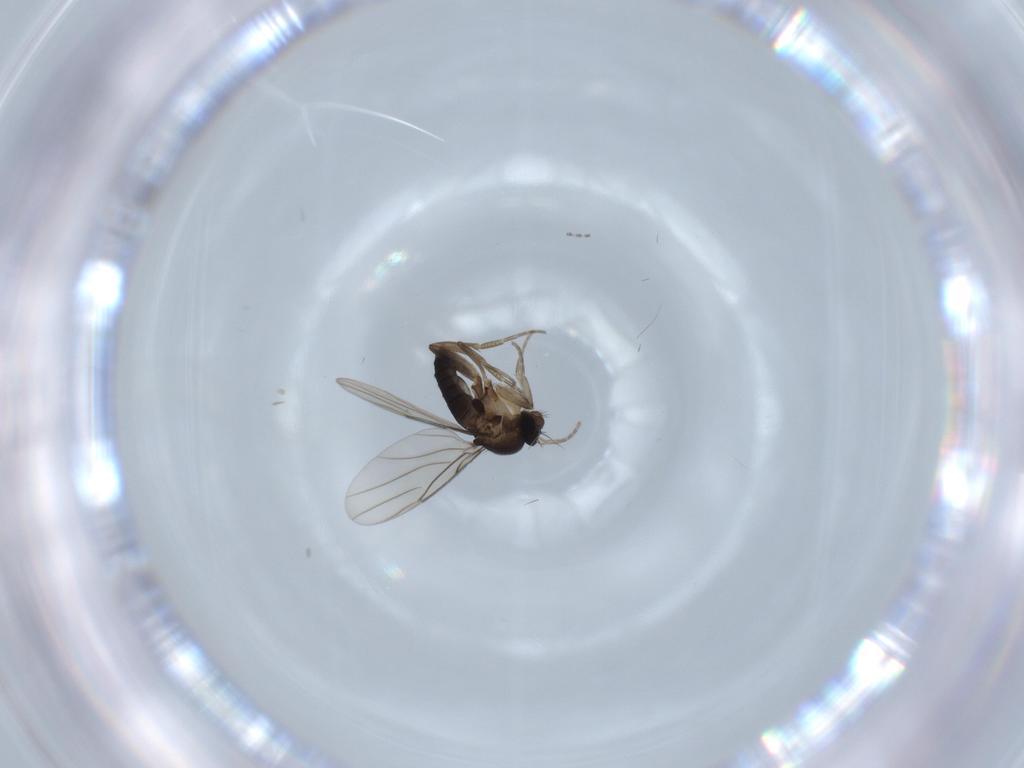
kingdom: Animalia
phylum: Arthropoda
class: Insecta
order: Diptera
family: Phoridae
